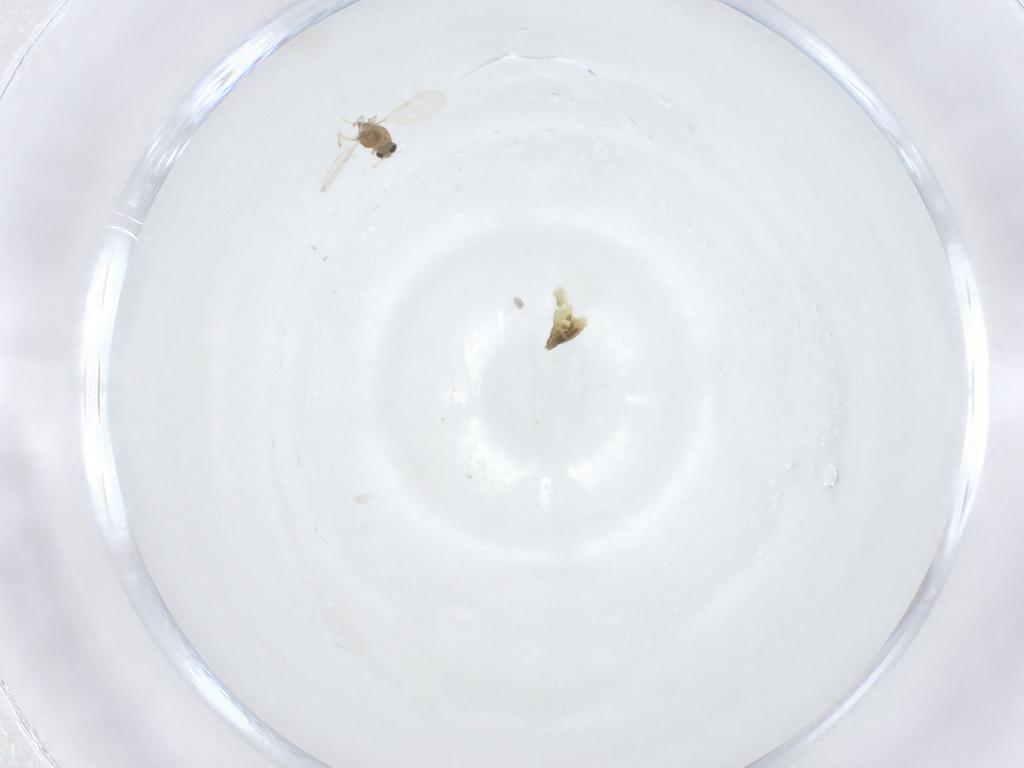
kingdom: Animalia
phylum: Arthropoda
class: Insecta
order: Diptera
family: Chironomidae
